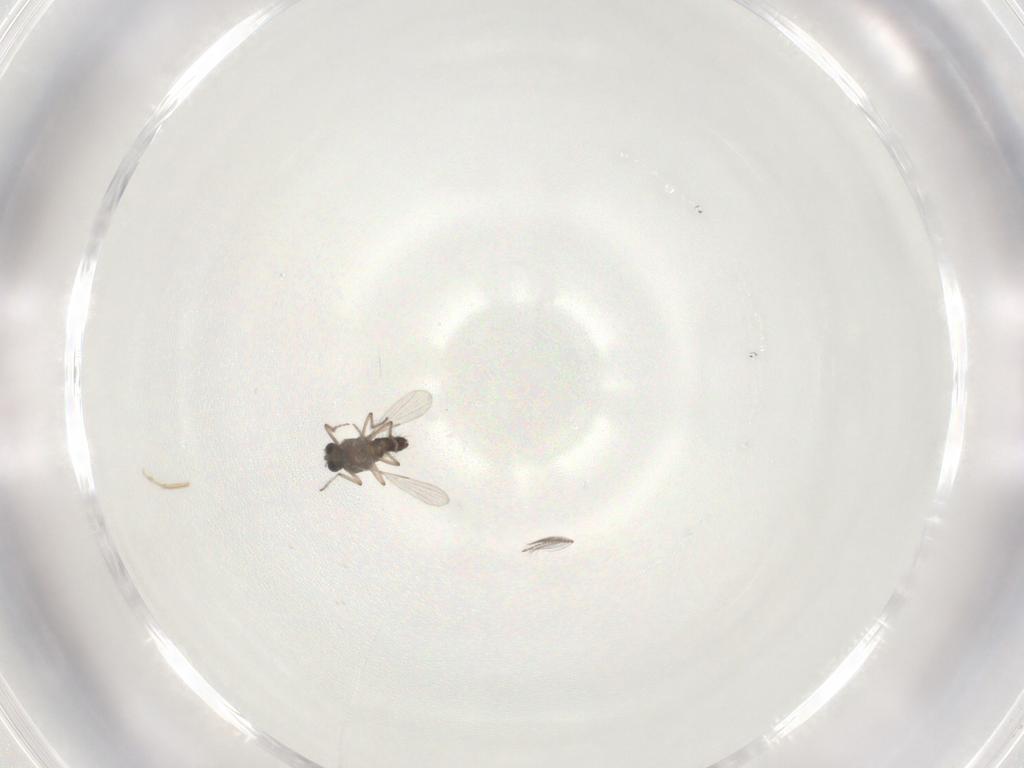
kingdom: Animalia
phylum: Arthropoda
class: Insecta
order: Diptera
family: Ceratopogonidae
